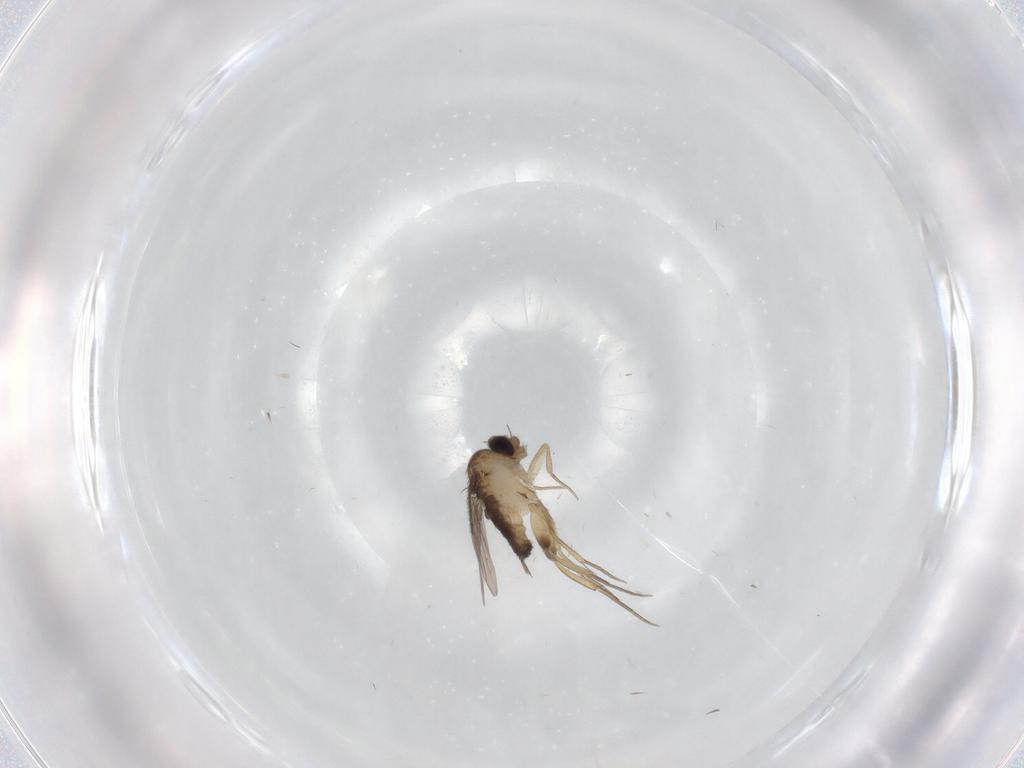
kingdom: Animalia
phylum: Arthropoda
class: Insecta
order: Diptera
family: Phoridae
